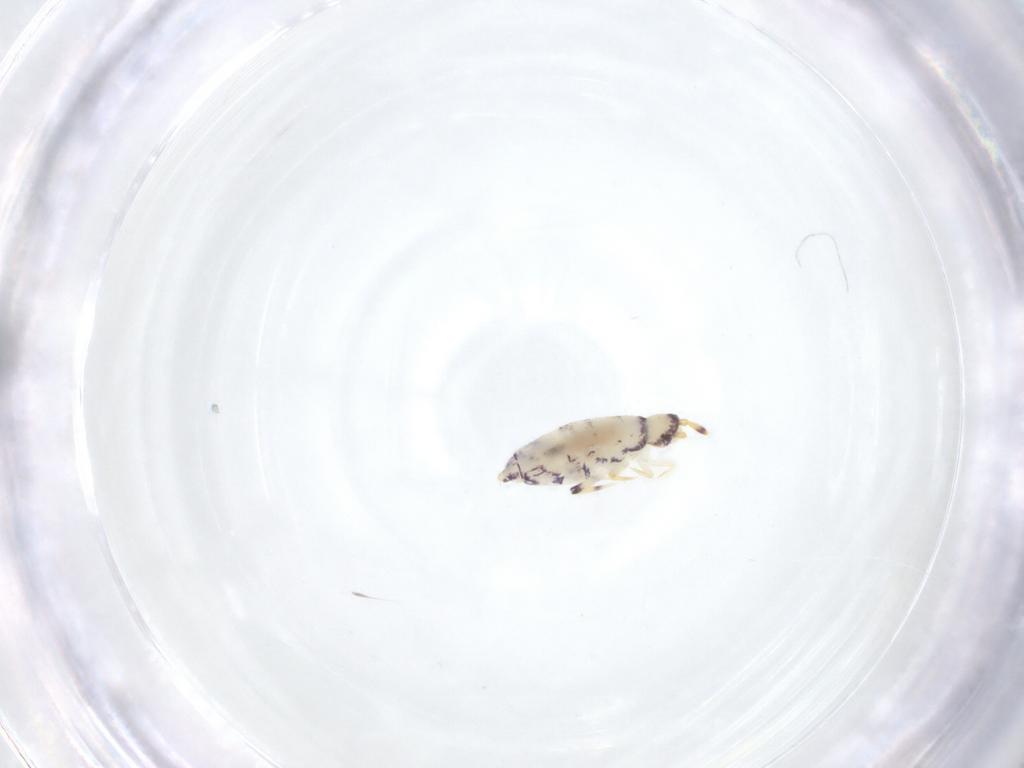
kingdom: Animalia
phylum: Arthropoda
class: Collembola
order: Entomobryomorpha
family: Isotomidae
